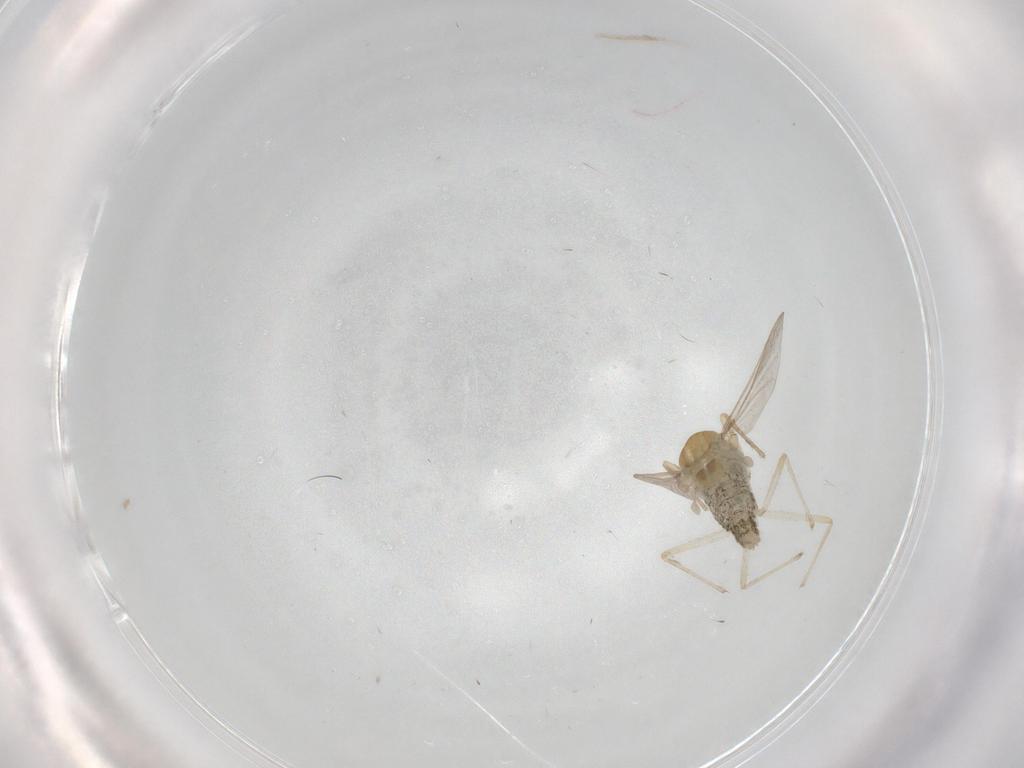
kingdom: Animalia
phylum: Arthropoda
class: Insecta
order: Diptera
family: Chironomidae
